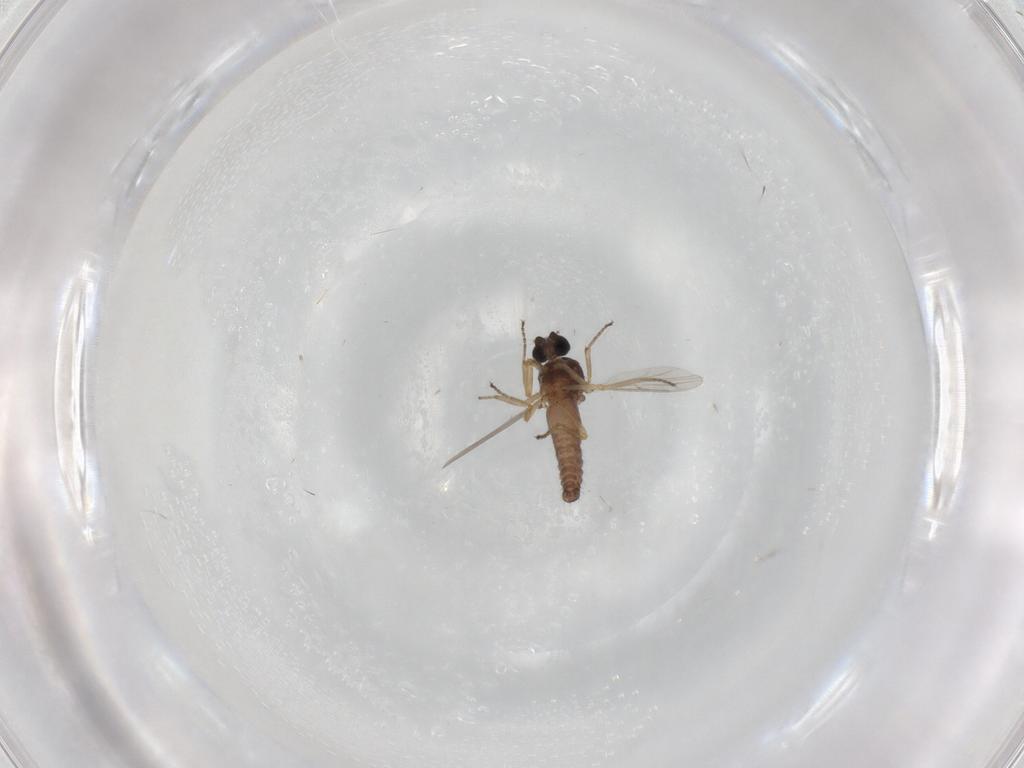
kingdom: Animalia
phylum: Arthropoda
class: Insecta
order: Diptera
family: Ceratopogonidae
